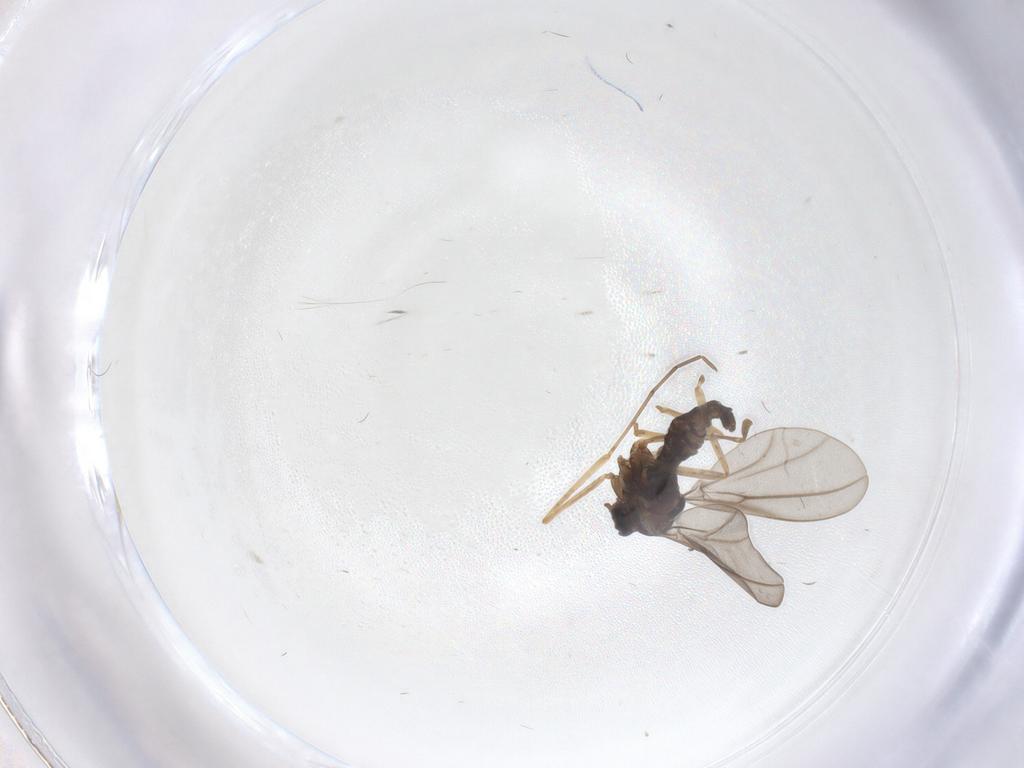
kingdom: Animalia
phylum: Arthropoda
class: Insecta
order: Diptera
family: Cecidomyiidae
